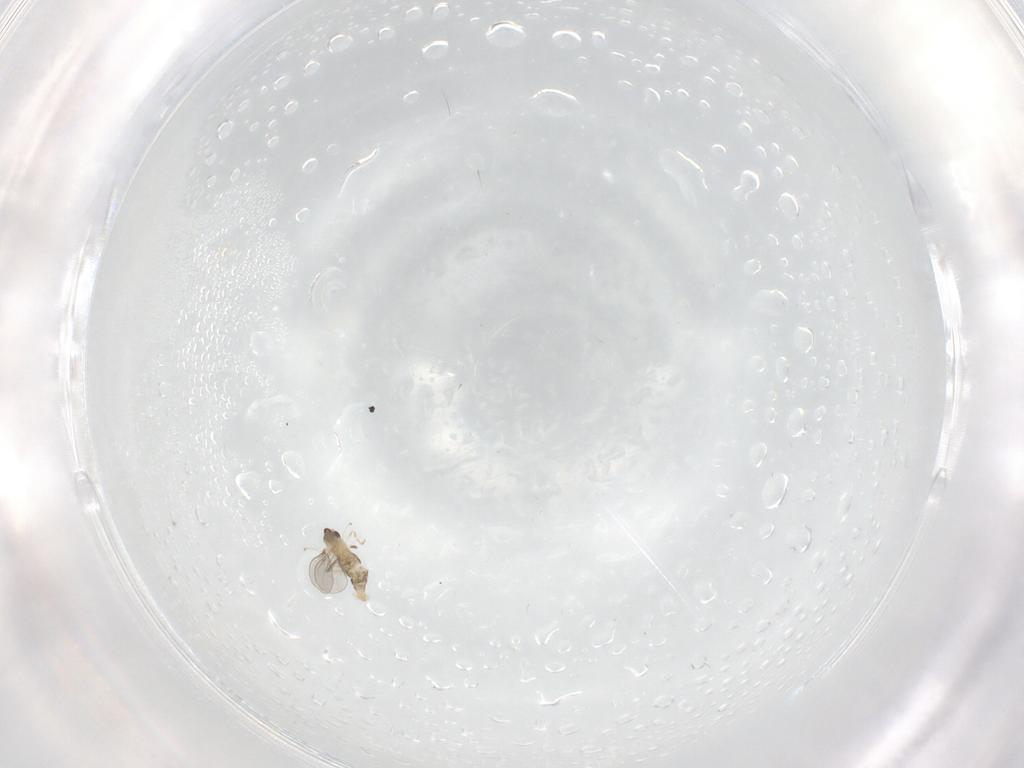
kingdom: Animalia
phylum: Arthropoda
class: Insecta
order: Diptera
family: Cecidomyiidae
